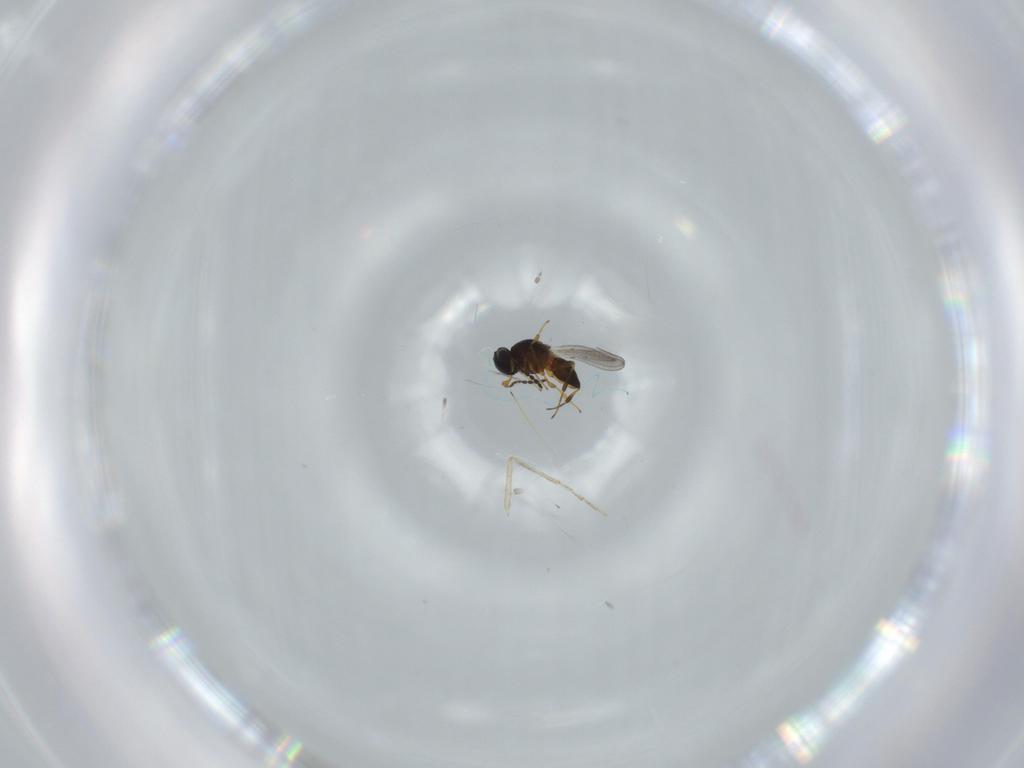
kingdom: Animalia
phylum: Arthropoda
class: Insecta
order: Hymenoptera
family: Platygastridae
